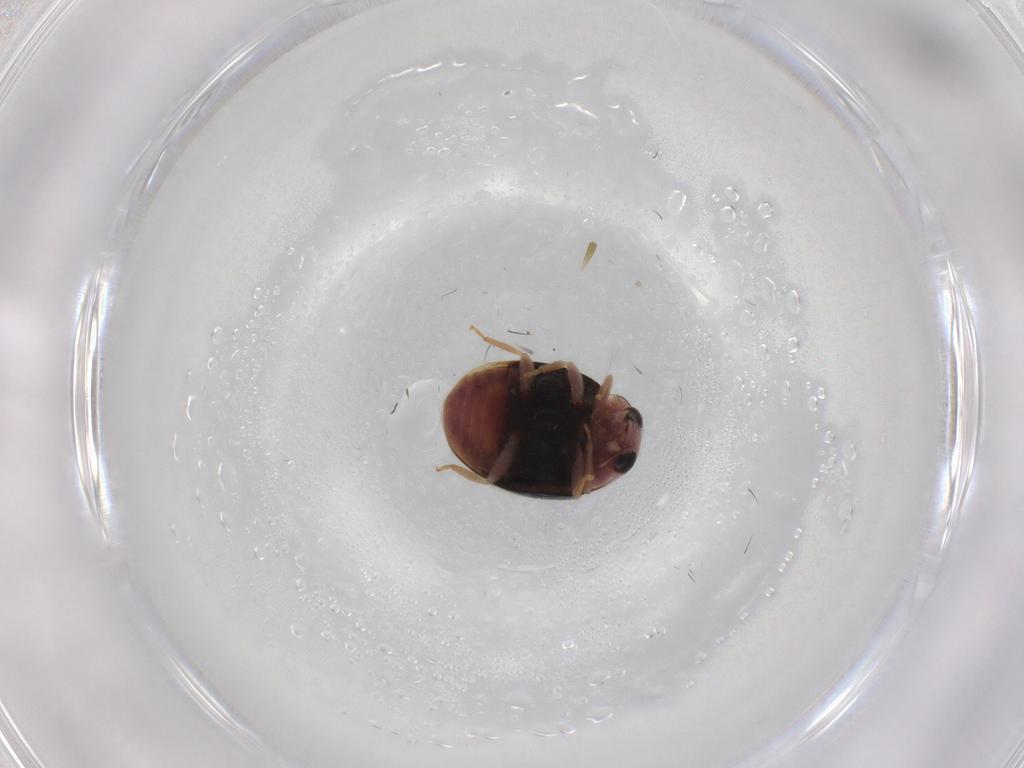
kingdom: Animalia
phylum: Arthropoda
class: Insecta
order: Coleoptera
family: Coccinellidae
